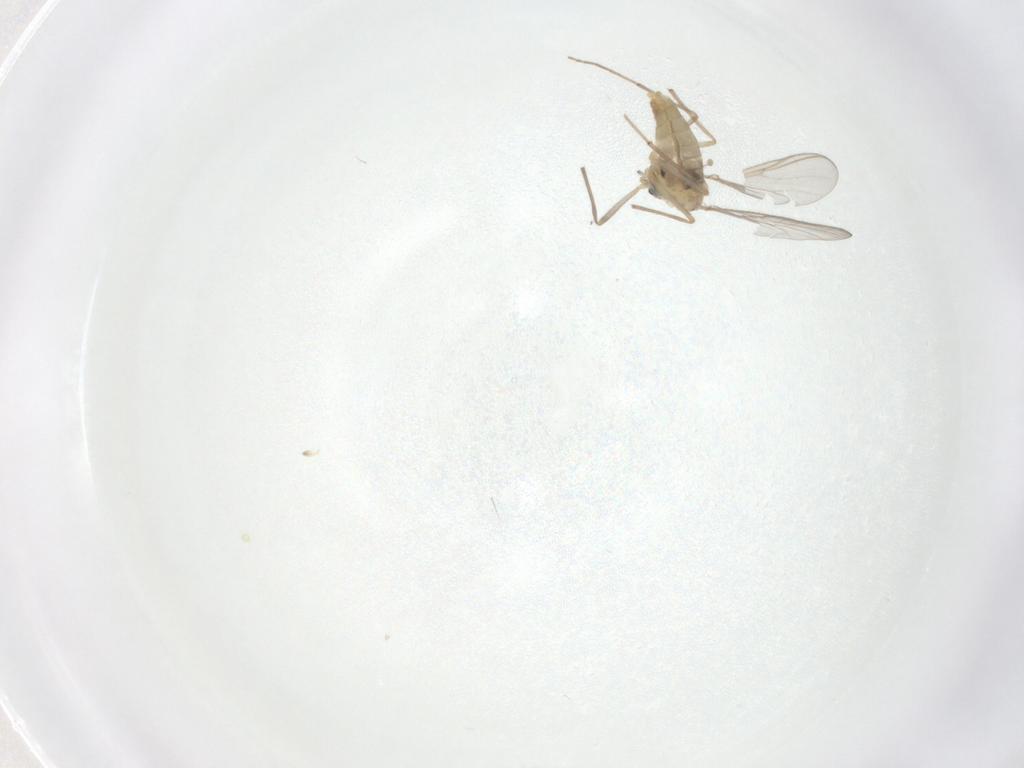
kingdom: Animalia
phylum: Arthropoda
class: Insecta
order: Diptera
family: Chironomidae
